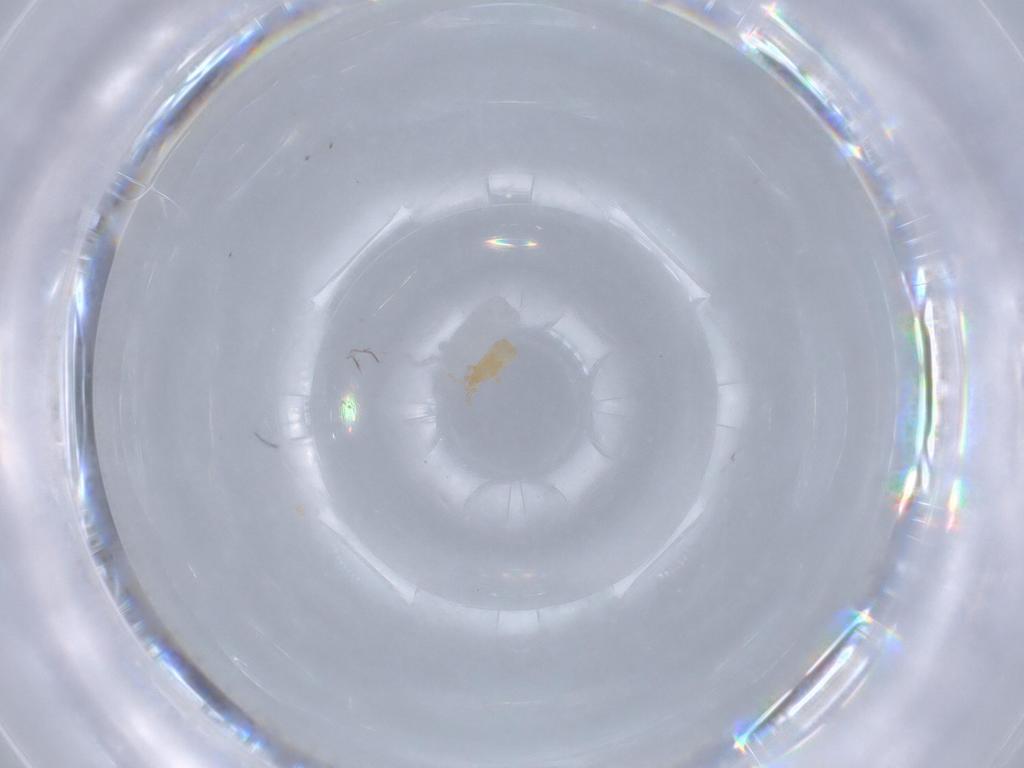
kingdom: Animalia
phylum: Arthropoda
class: Arachnida
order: Mesostigmata
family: Digamasellidae
